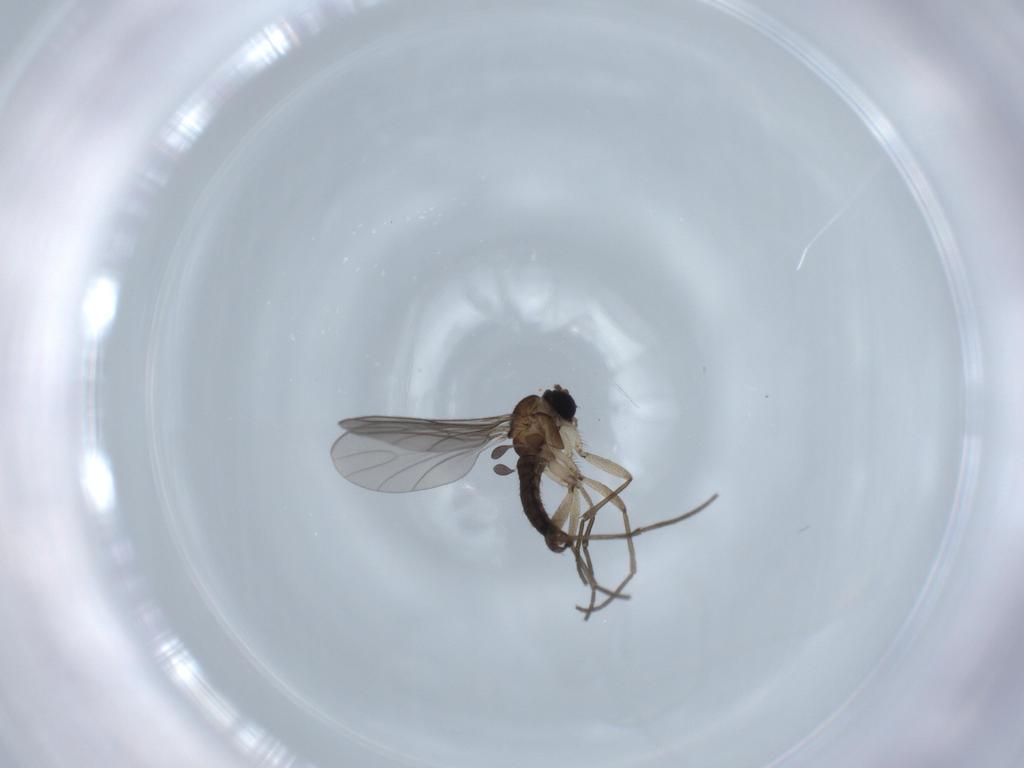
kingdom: Animalia
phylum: Arthropoda
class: Insecta
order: Diptera
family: Sciaridae
